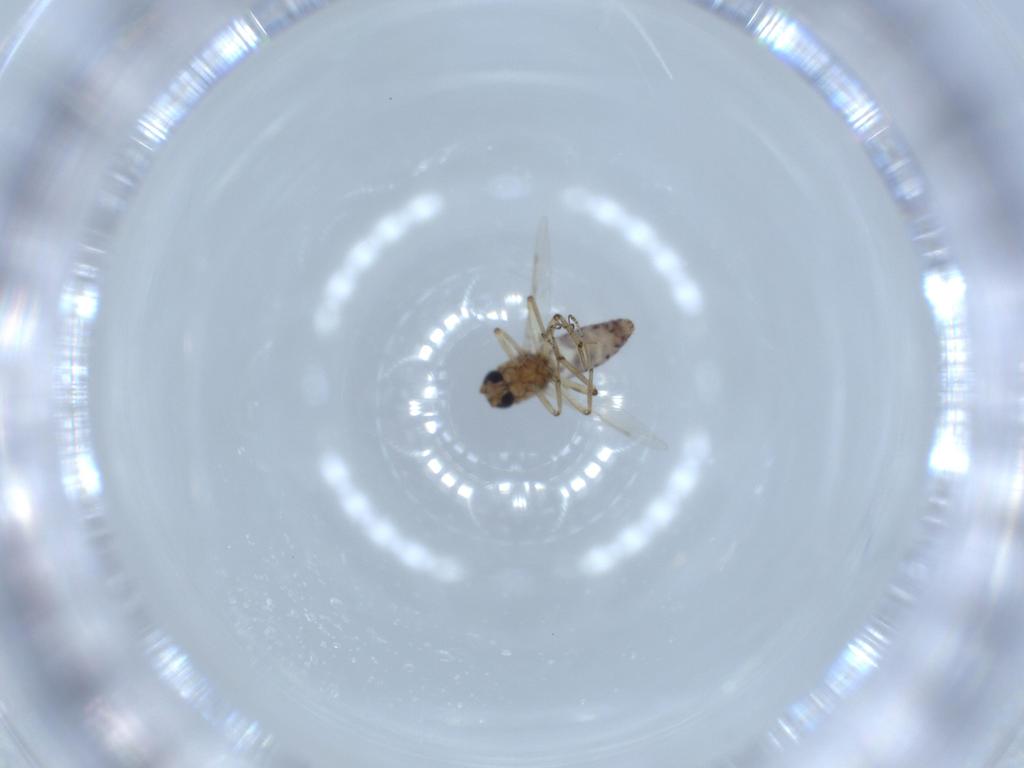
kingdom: Animalia
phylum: Arthropoda
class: Insecta
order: Diptera
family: Ceratopogonidae
